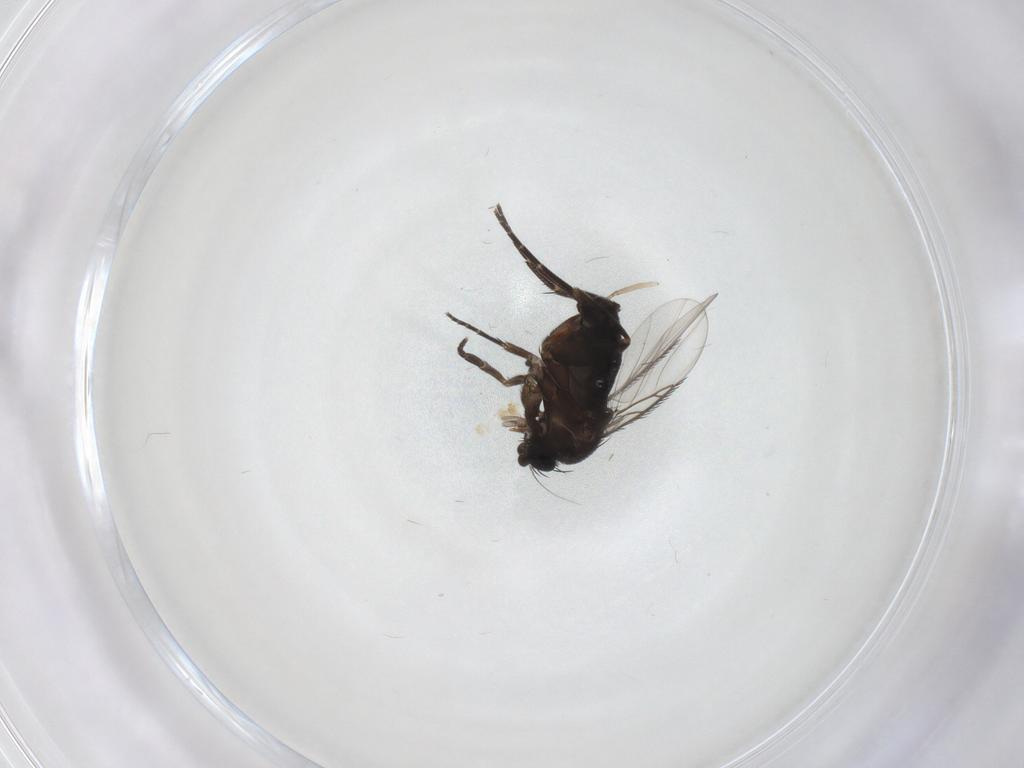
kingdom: Animalia
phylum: Arthropoda
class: Insecta
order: Diptera
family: Phoridae
